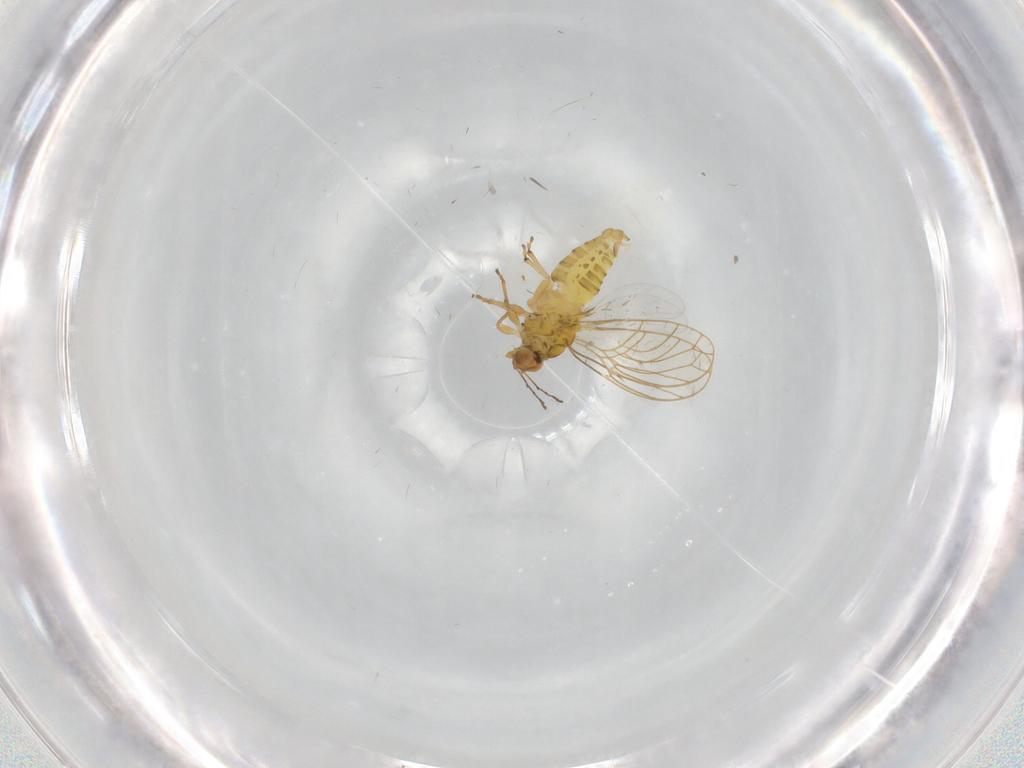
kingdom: Animalia
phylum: Arthropoda
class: Insecta
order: Hemiptera
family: Psylloidea_incertae_sedis
